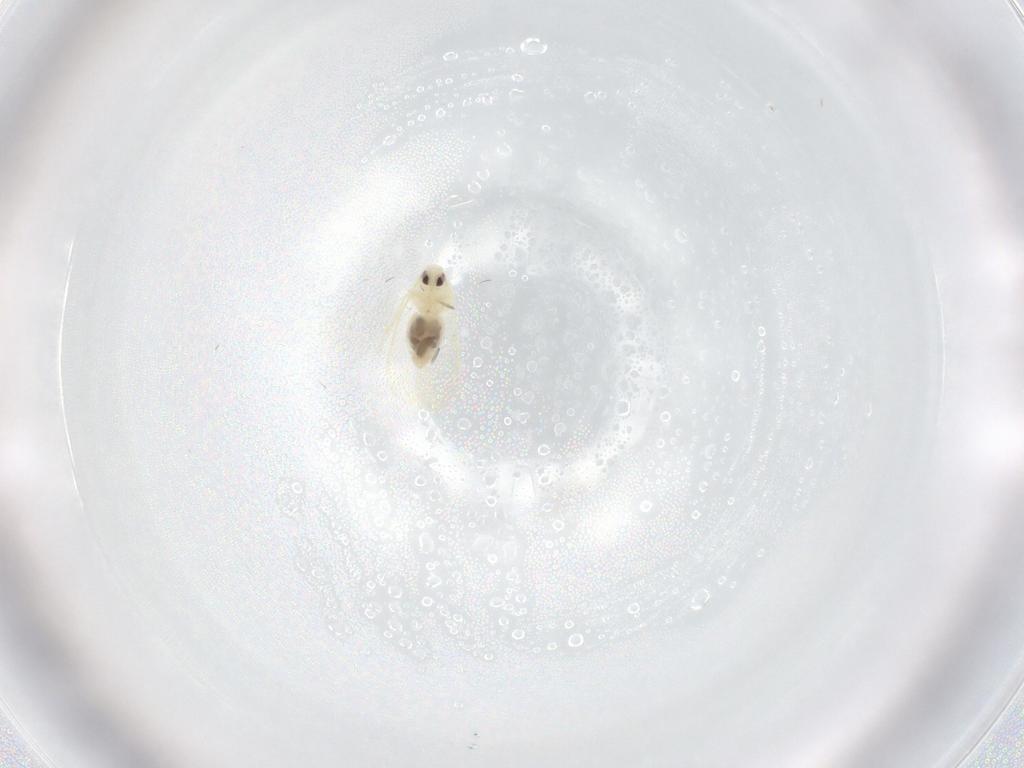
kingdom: Animalia
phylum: Arthropoda
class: Insecta
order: Hemiptera
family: Aleyrodidae
